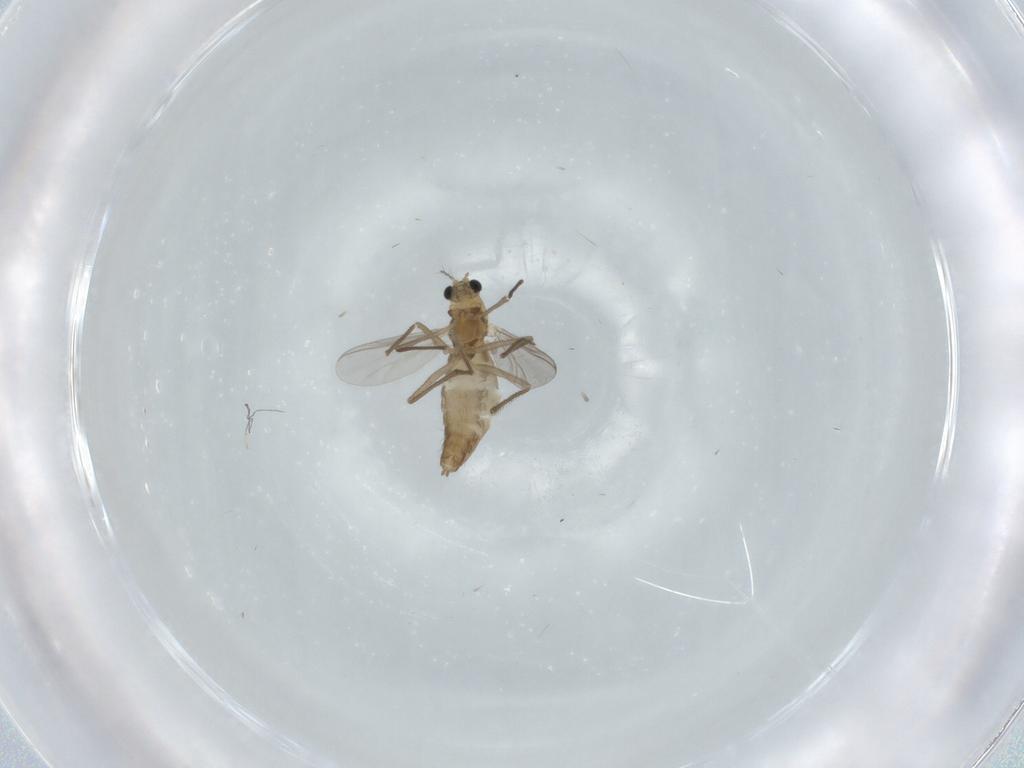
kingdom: Animalia
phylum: Arthropoda
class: Insecta
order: Diptera
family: Chironomidae
